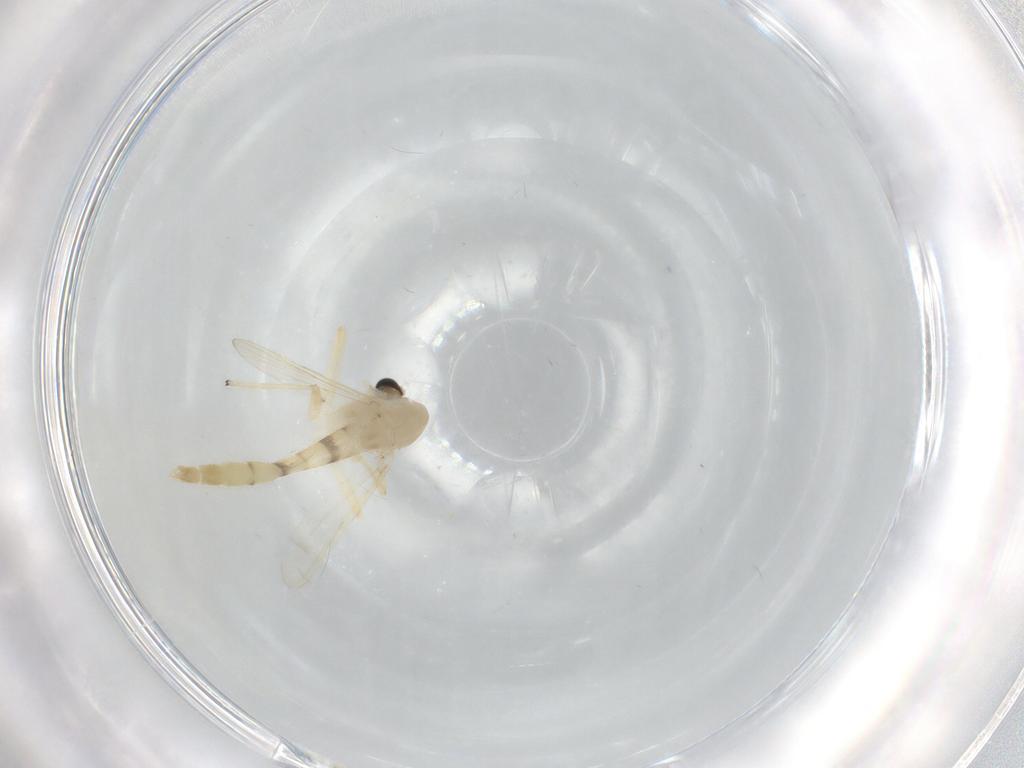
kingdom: Animalia
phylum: Arthropoda
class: Insecta
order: Diptera
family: Chironomidae
